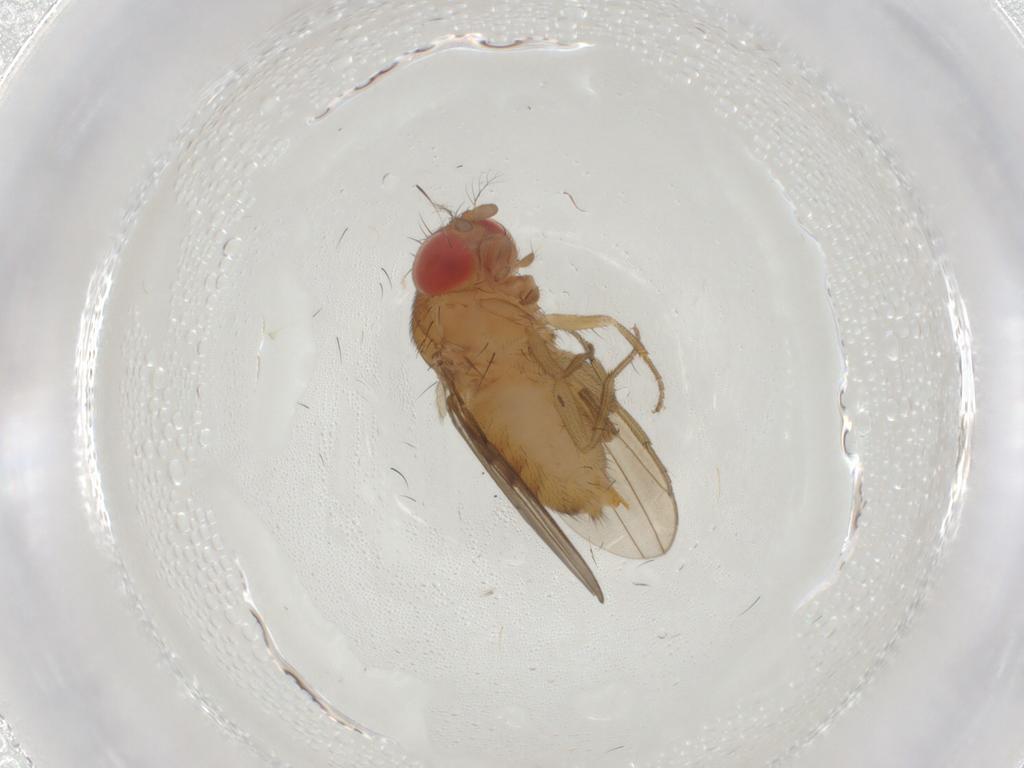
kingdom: Animalia
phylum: Arthropoda
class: Insecta
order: Diptera
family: Drosophilidae
